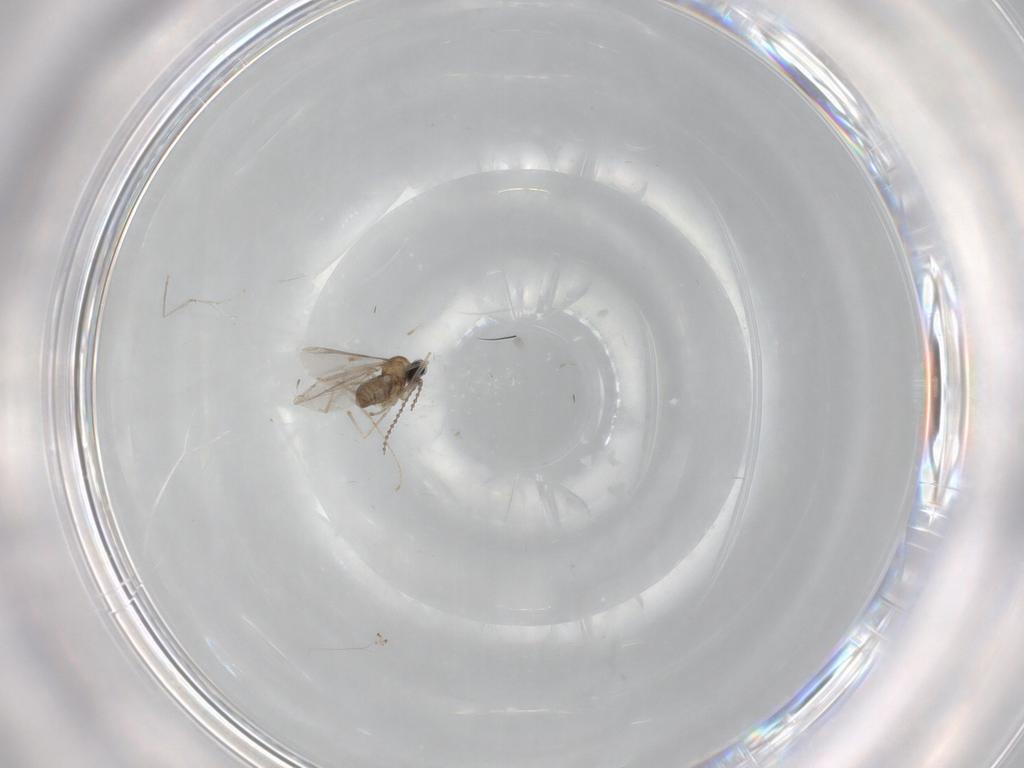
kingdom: Animalia
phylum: Arthropoda
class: Insecta
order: Diptera
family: Cecidomyiidae
